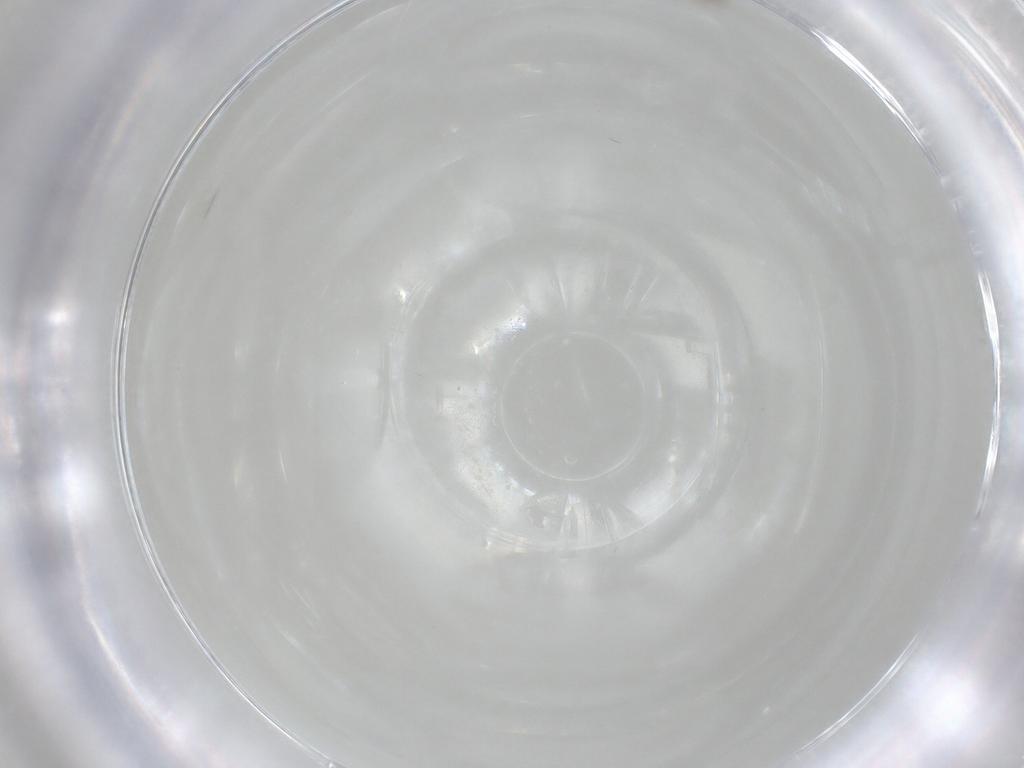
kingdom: Animalia
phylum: Arthropoda
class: Insecta
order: Diptera
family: Cecidomyiidae
